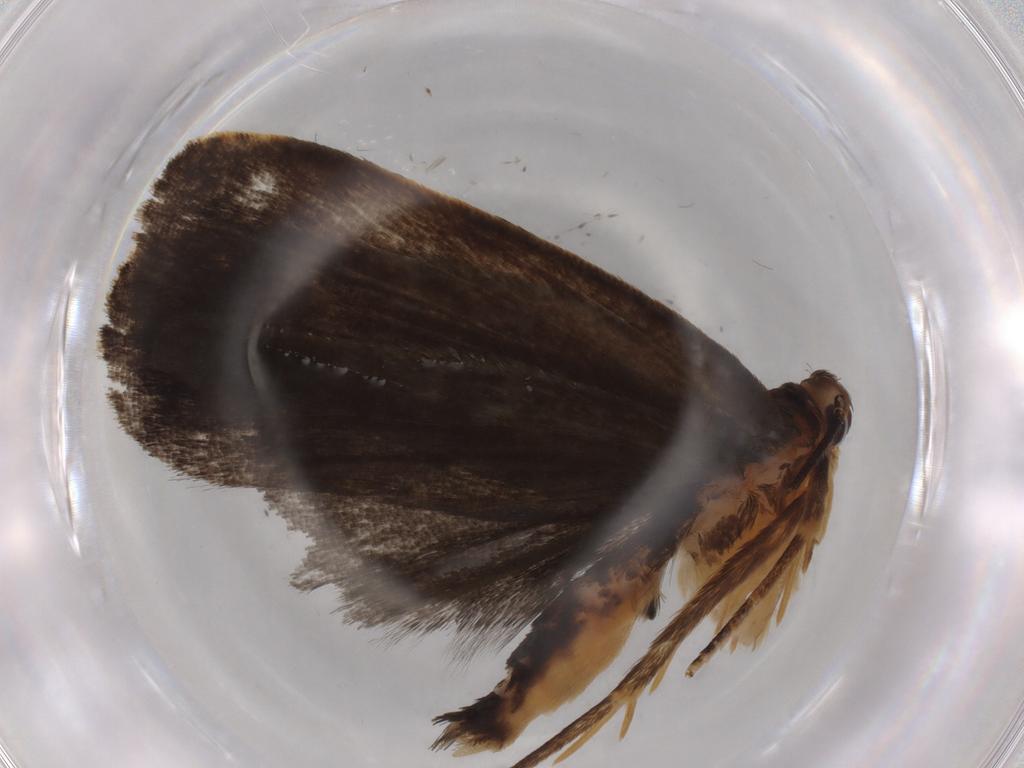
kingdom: Animalia
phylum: Arthropoda
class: Insecta
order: Lepidoptera
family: Depressariidae
